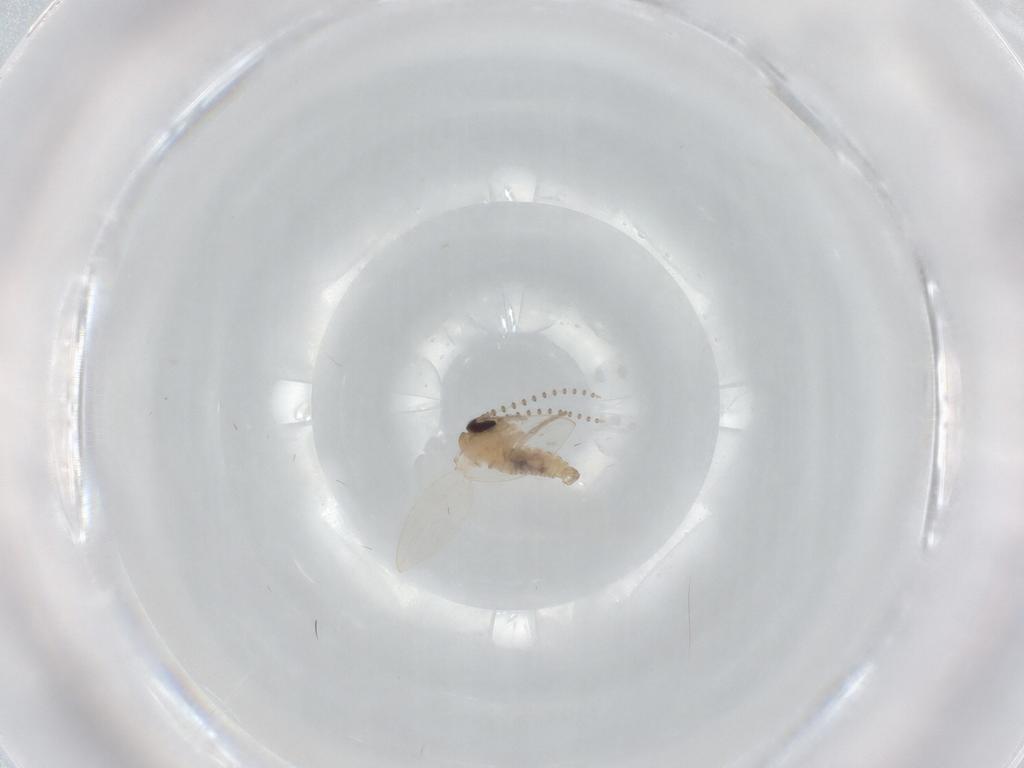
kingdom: Animalia
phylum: Arthropoda
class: Insecta
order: Diptera
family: Psychodidae
